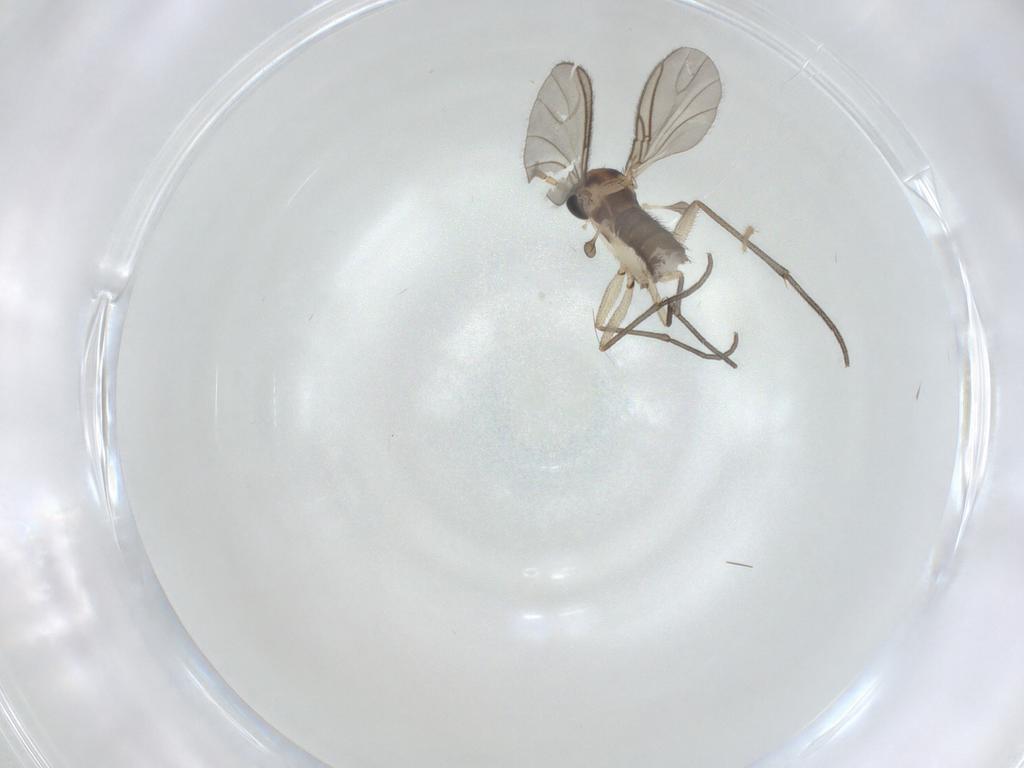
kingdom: Animalia
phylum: Arthropoda
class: Insecta
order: Diptera
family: Sciaridae
